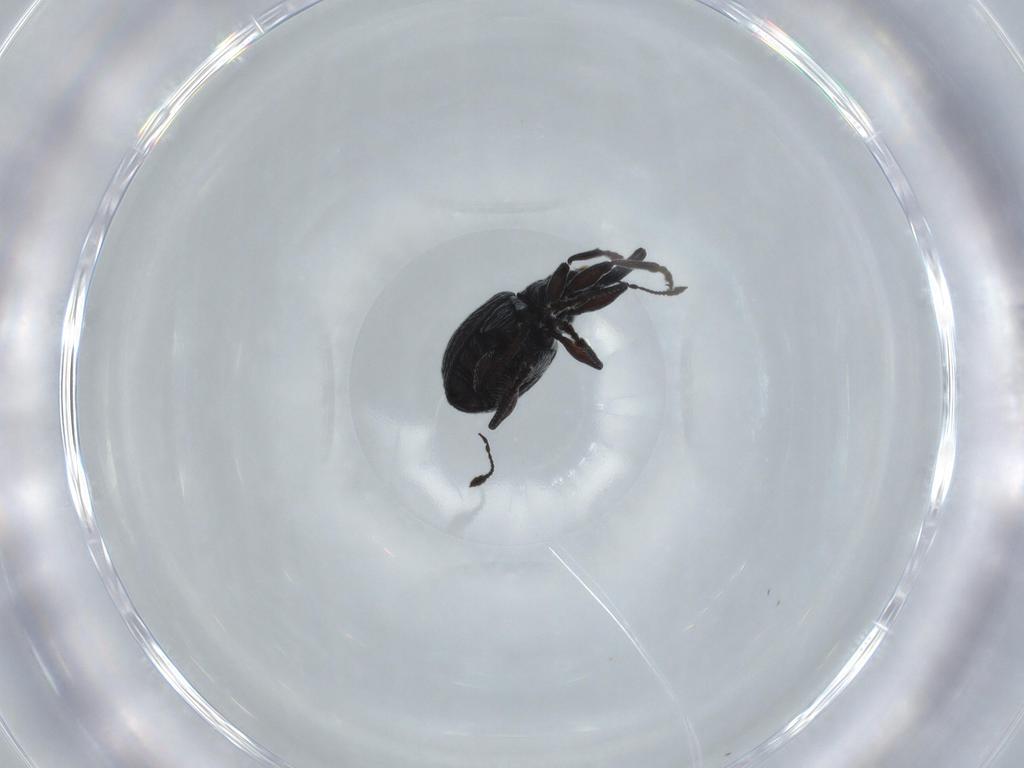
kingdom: Animalia
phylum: Arthropoda
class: Insecta
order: Coleoptera
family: Brentidae
